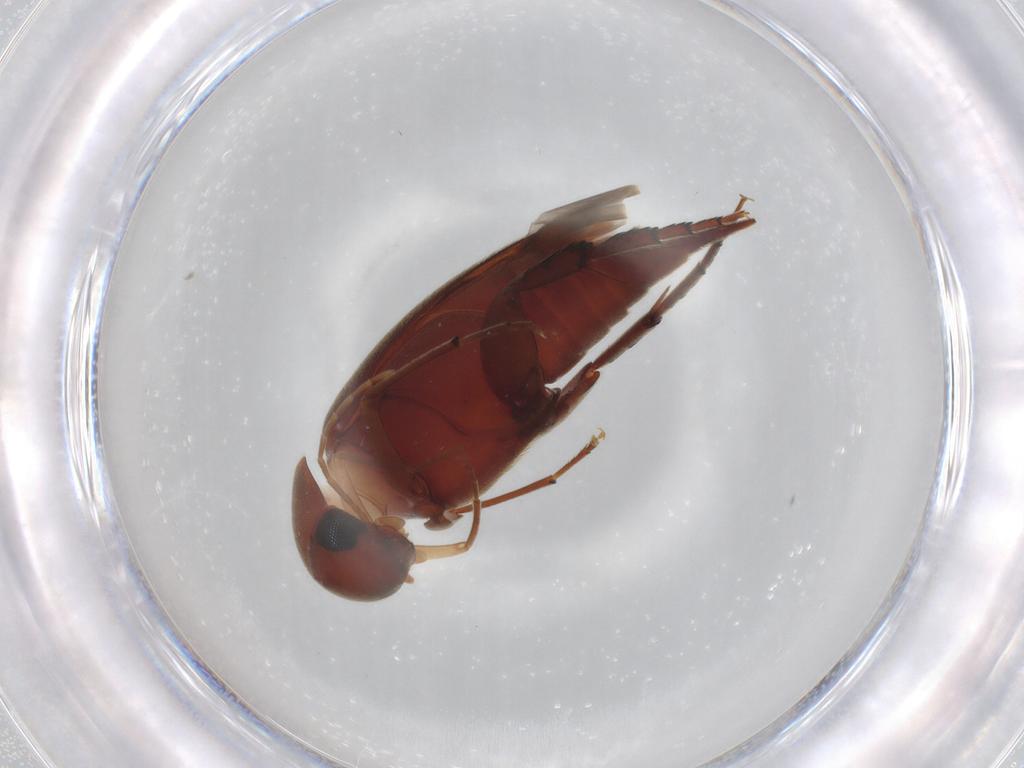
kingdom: Animalia
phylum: Arthropoda
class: Insecta
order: Coleoptera
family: Mordellidae
